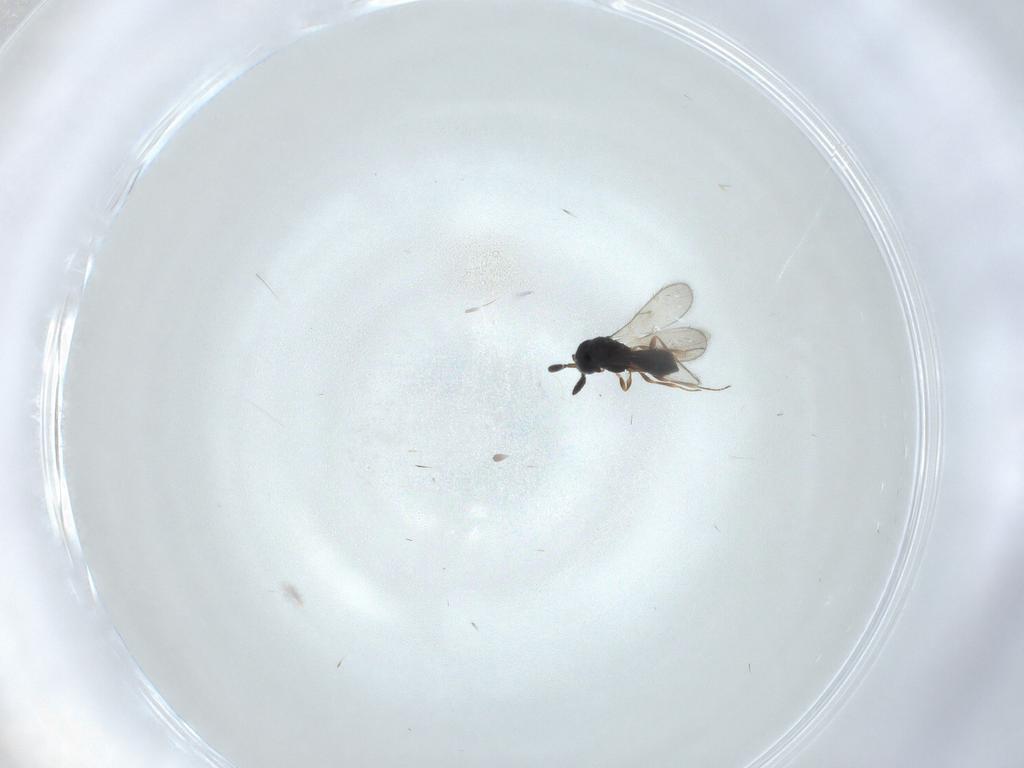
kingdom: Animalia
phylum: Arthropoda
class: Insecta
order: Hymenoptera
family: Scelionidae
